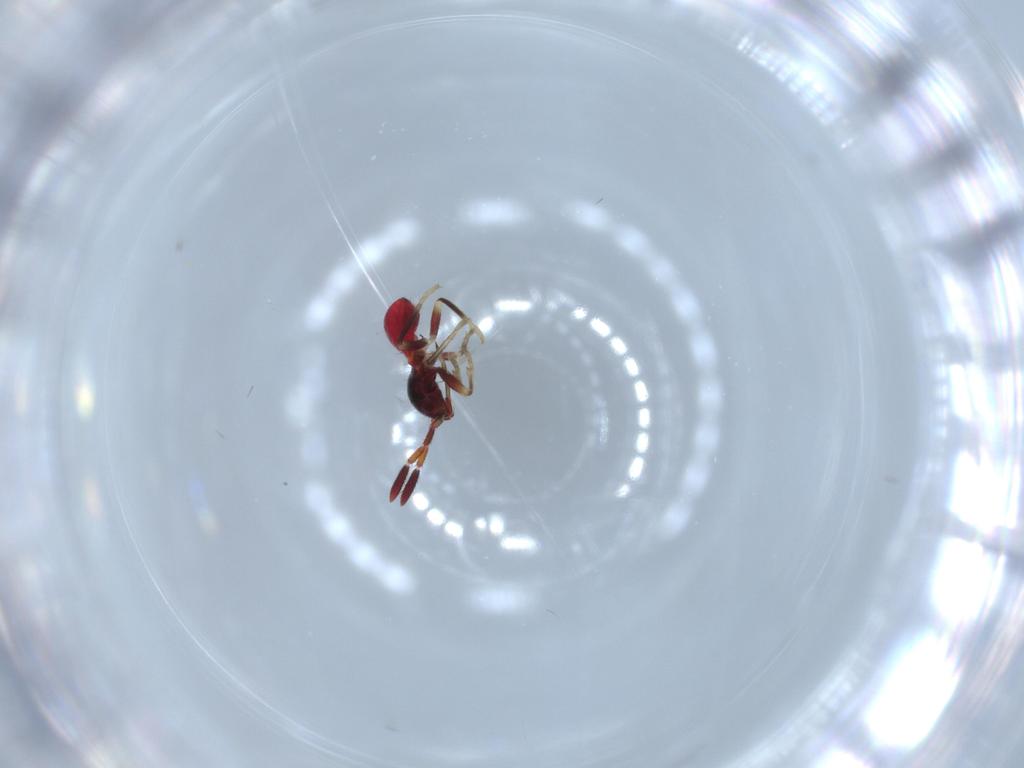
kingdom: Animalia
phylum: Arthropoda
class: Insecta
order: Hemiptera
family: Rhyparochromidae
